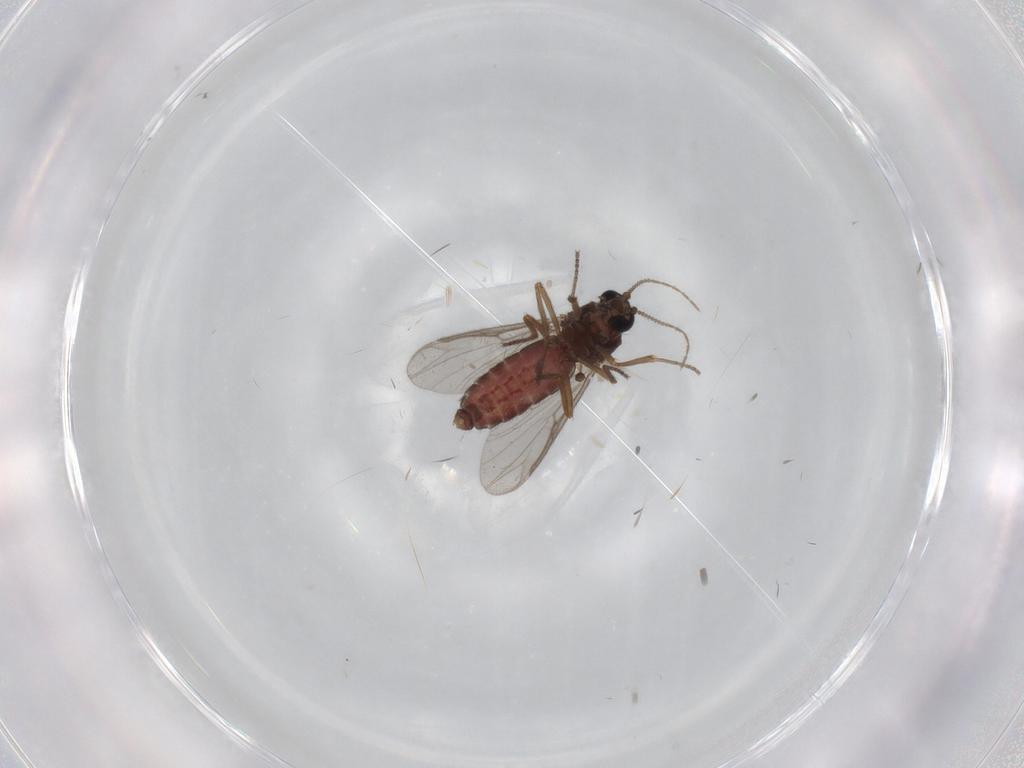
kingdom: Animalia
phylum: Arthropoda
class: Insecta
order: Diptera
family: Ceratopogonidae
